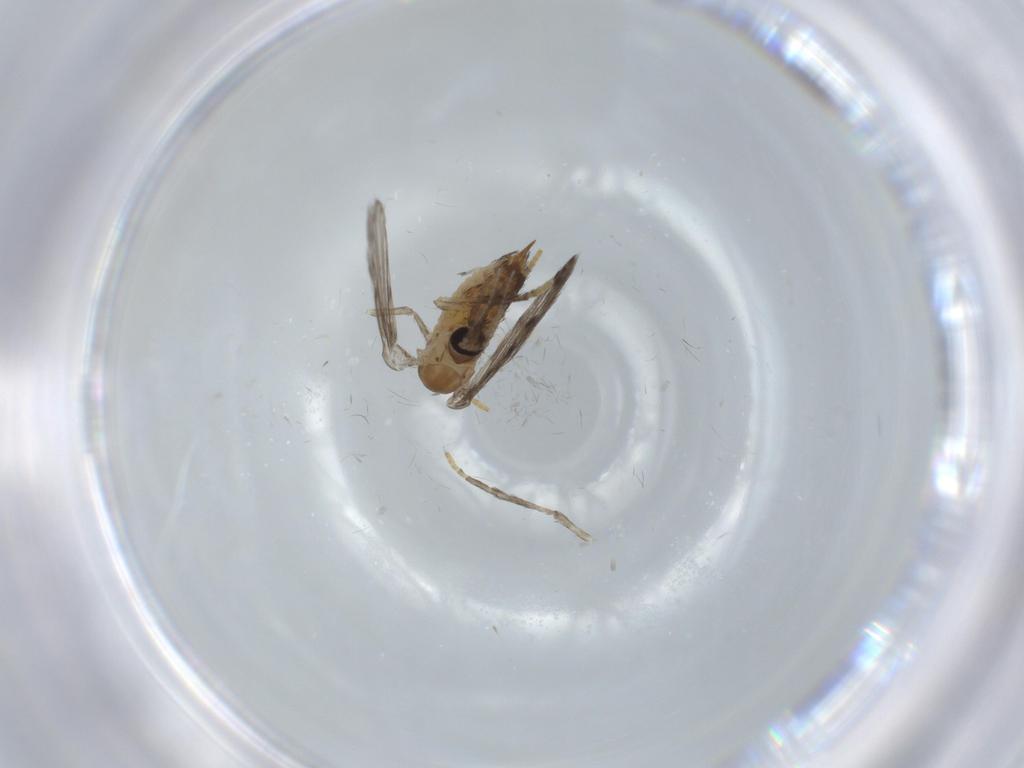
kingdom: Animalia
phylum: Arthropoda
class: Insecta
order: Diptera
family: Psychodidae
